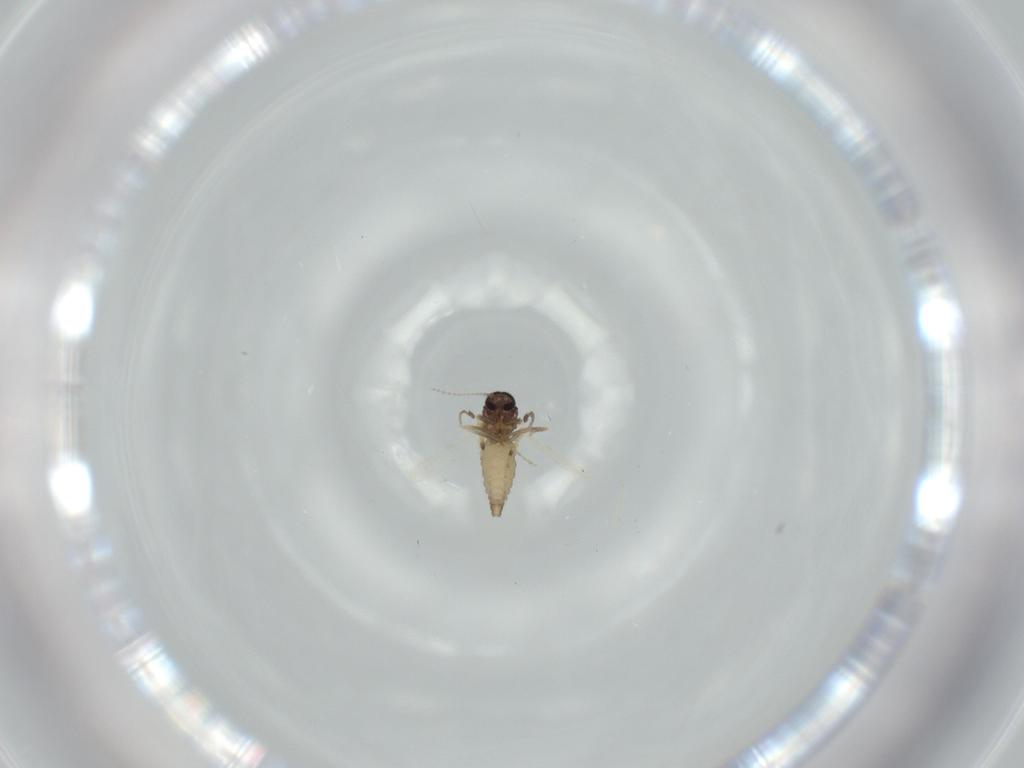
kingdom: Animalia
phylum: Arthropoda
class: Insecta
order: Diptera
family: Ceratopogonidae
